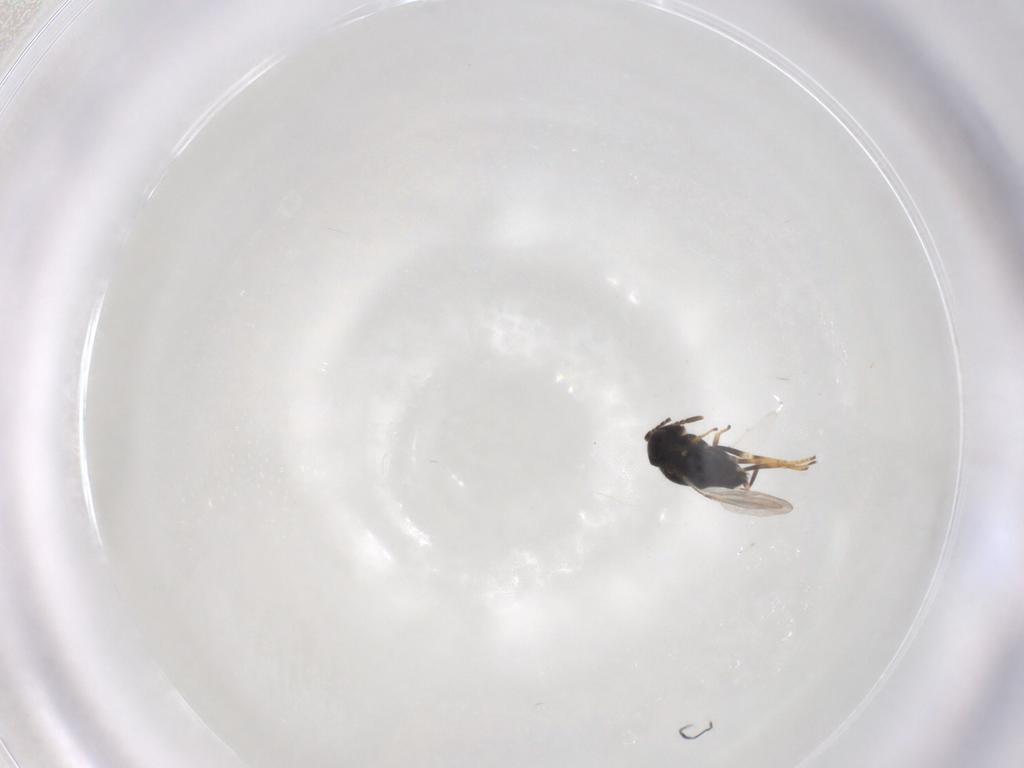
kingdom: Animalia
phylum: Arthropoda
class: Insecta
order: Hymenoptera
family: Encyrtidae
